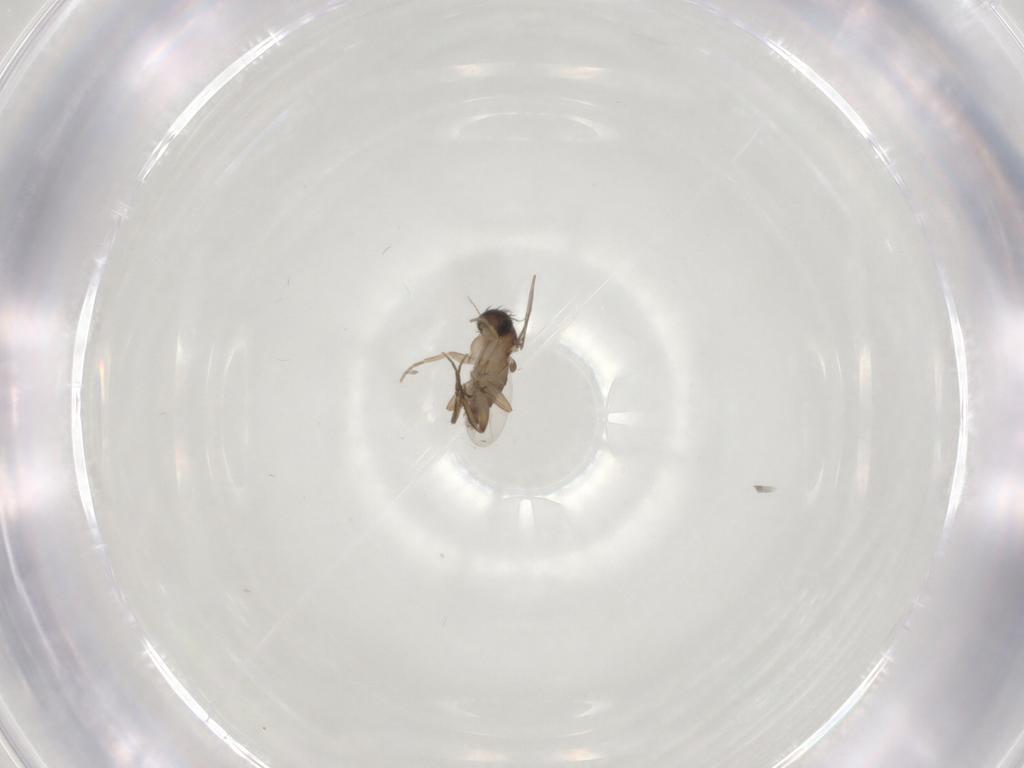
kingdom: Animalia
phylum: Arthropoda
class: Insecta
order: Diptera
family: Phoridae
